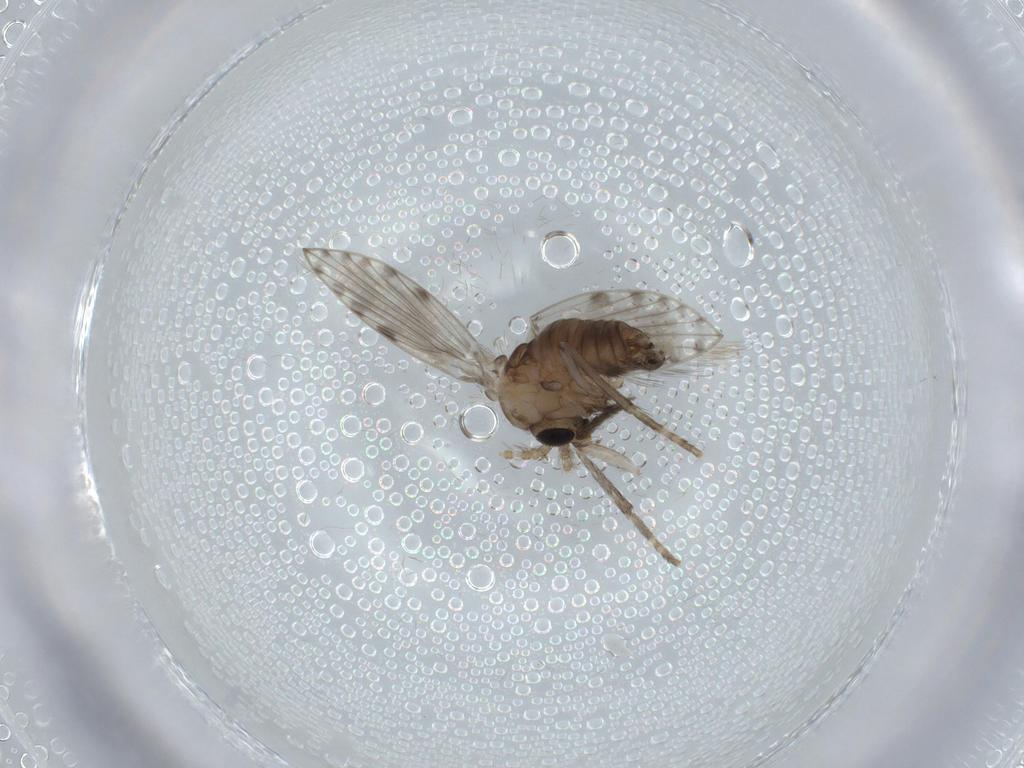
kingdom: Animalia
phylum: Arthropoda
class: Insecta
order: Diptera
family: Psychodidae
